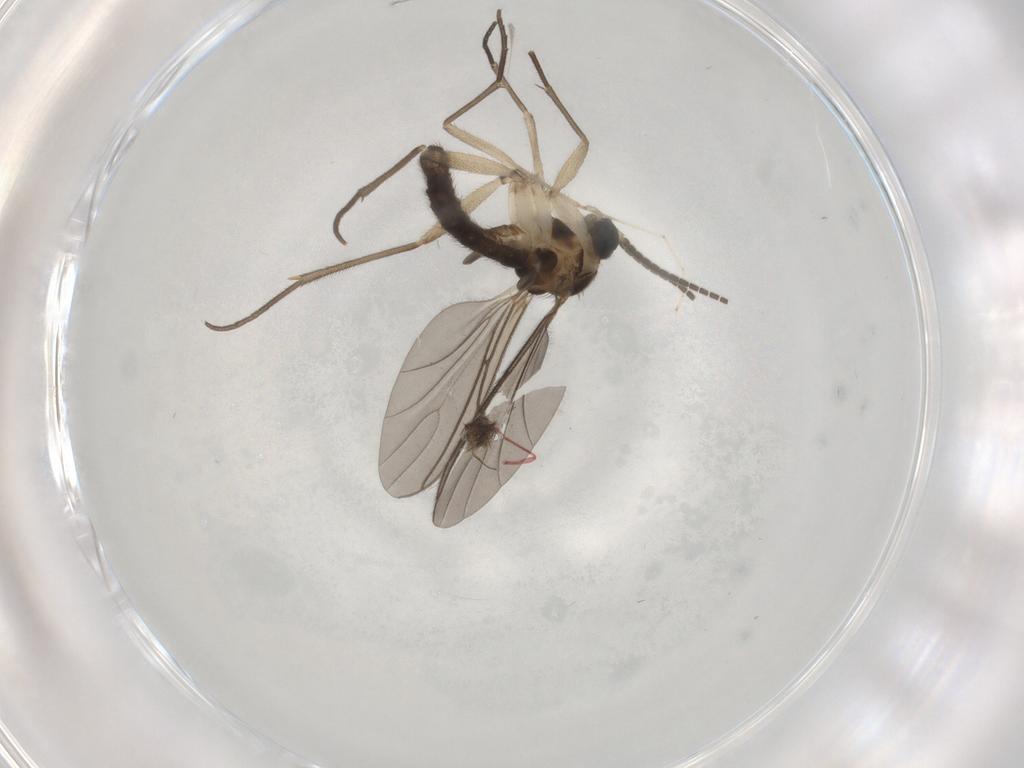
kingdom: Animalia
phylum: Arthropoda
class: Insecta
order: Diptera
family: Sciaridae
